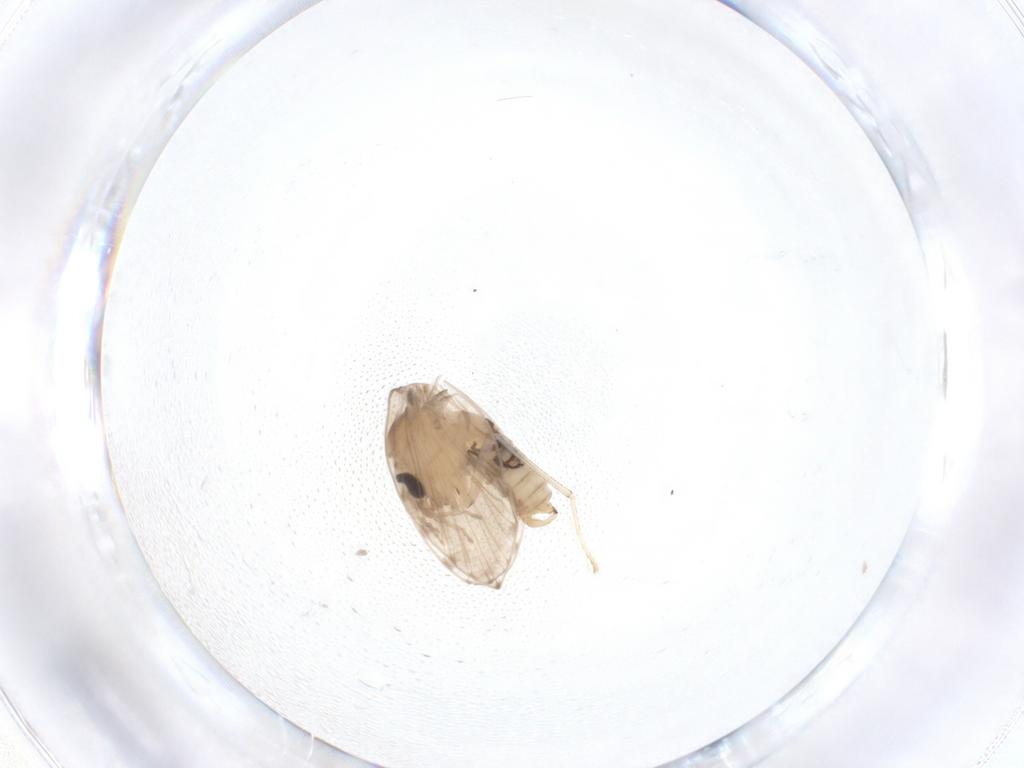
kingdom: Animalia
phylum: Arthropoda
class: Insecta
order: Diptera
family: Psychodidae
